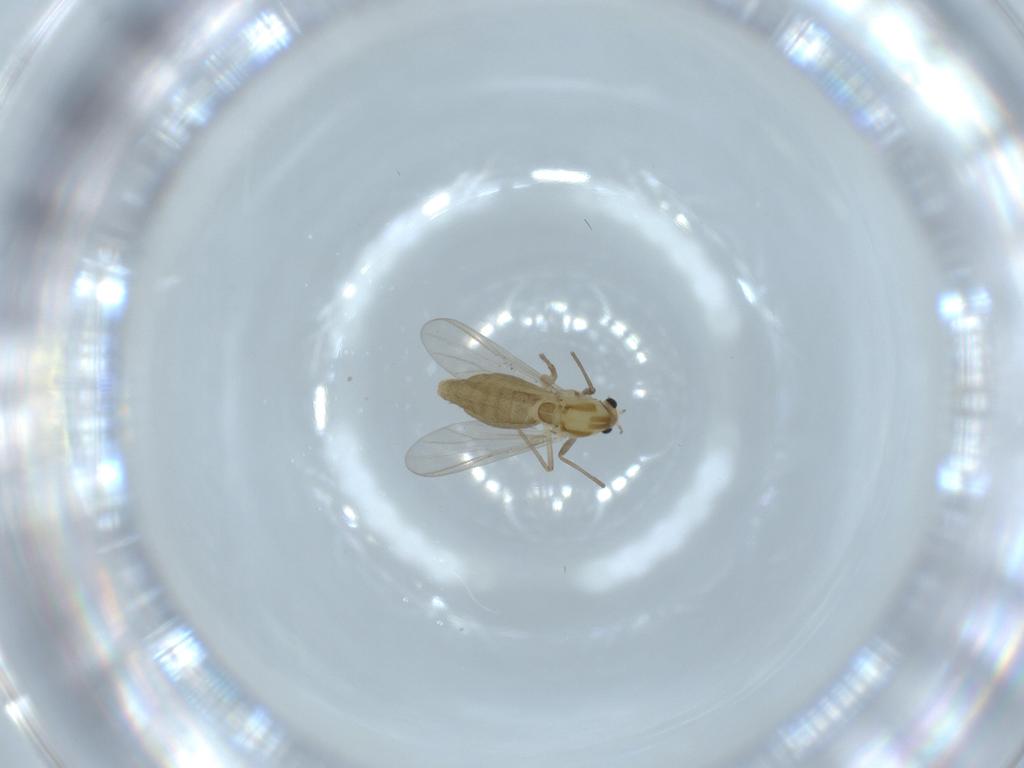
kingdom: Animalia
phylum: Arthropoda
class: Insecta
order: Diptera
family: Chironomidae
